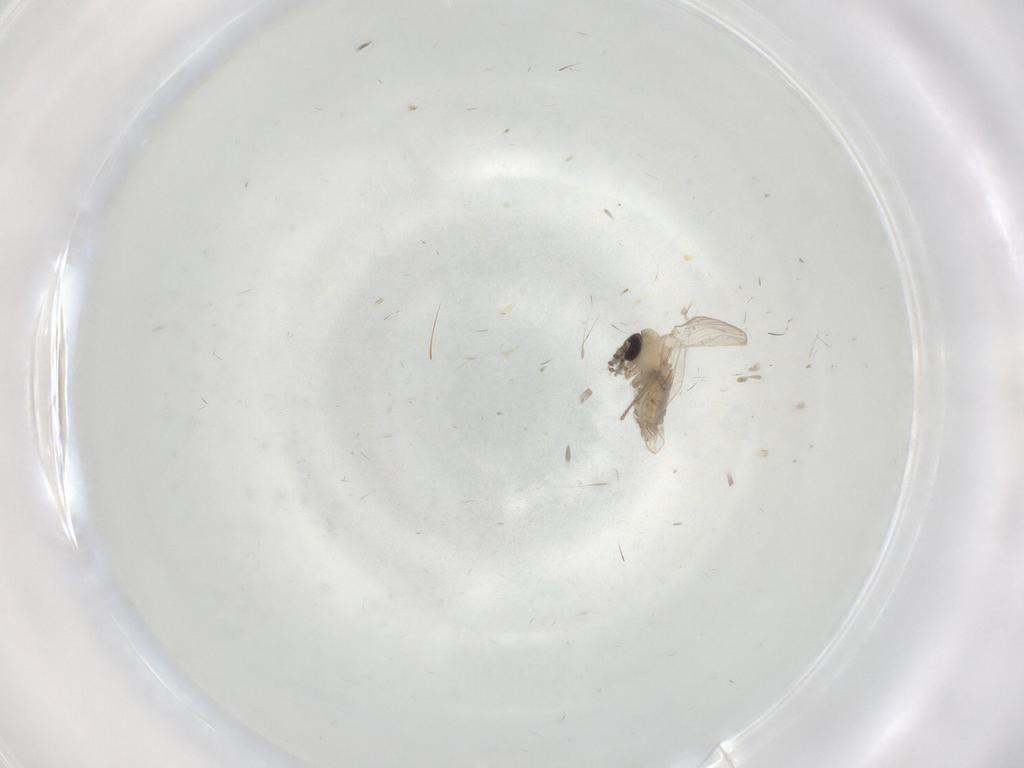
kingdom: Animalia
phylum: Arthropoda
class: Insecta
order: Diptera
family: Psychodidae
